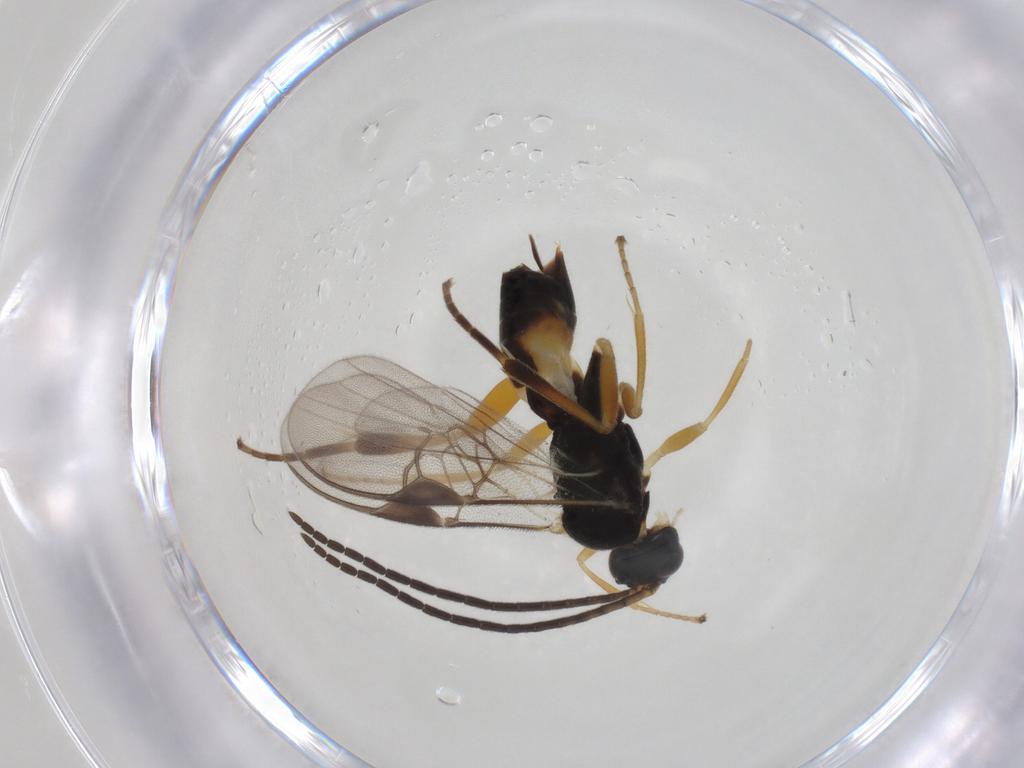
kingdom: Animalia
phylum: Arthropoda
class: Insecta
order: Hymenoptera
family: Braconidae
